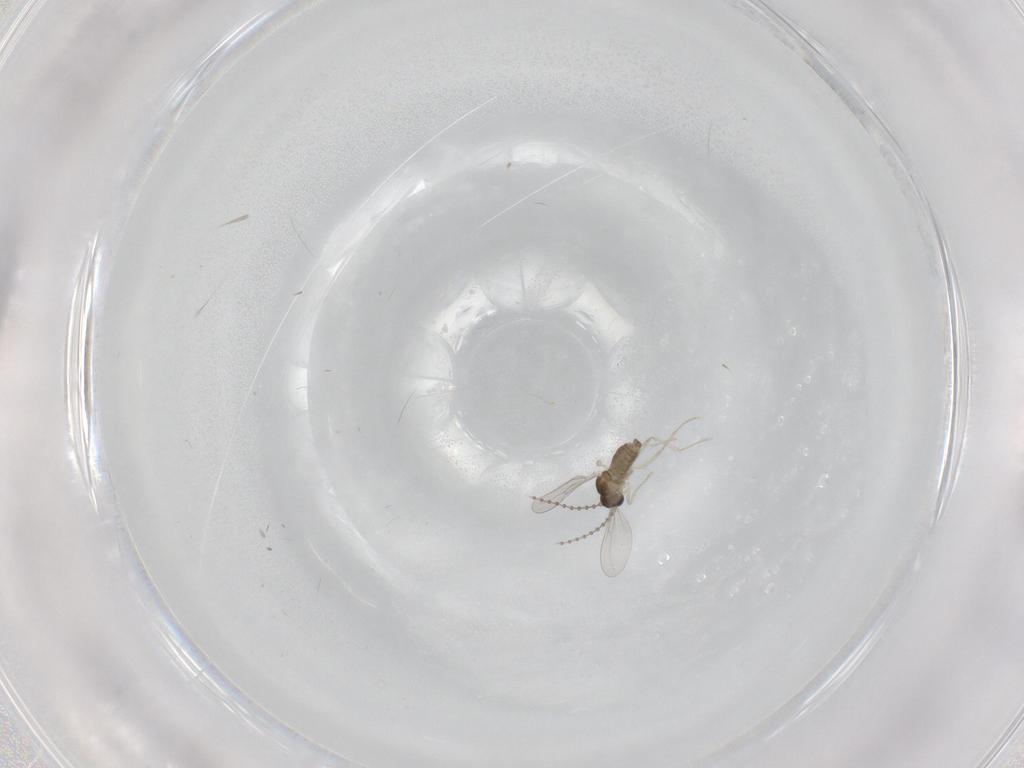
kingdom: Animalia
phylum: Arthropoda
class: Insecta
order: Diptera
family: Cecidomyiidae
